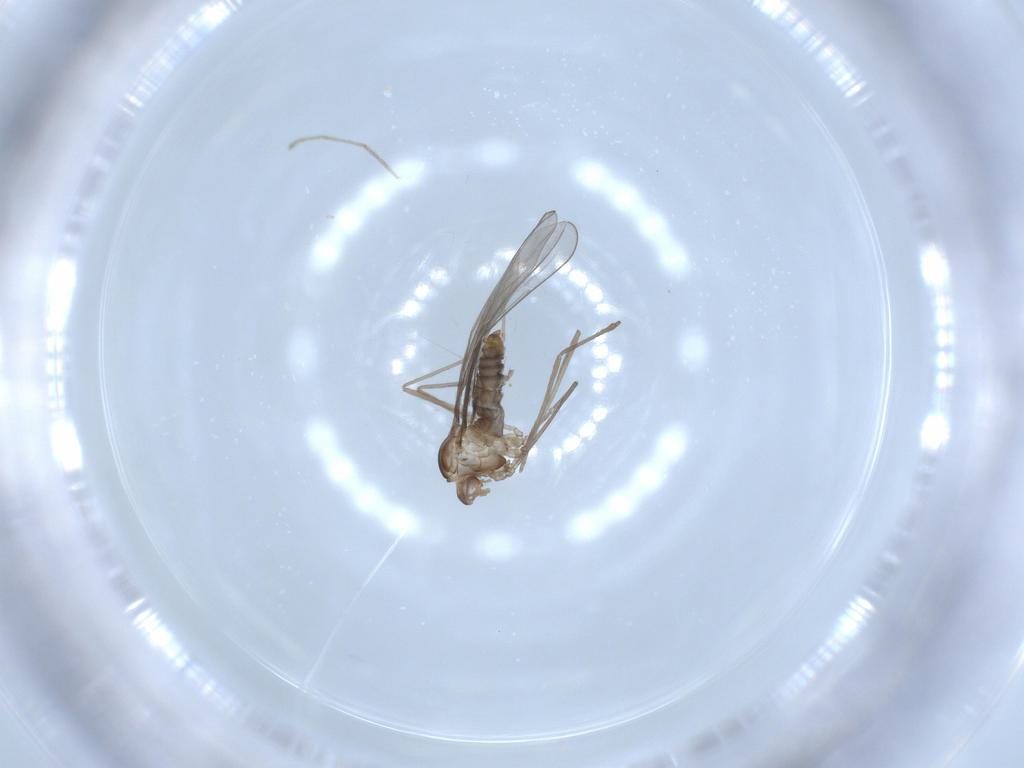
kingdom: Animalia
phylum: Arthropoda
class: Insecta
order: Diptera
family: Cecidomyiidae
